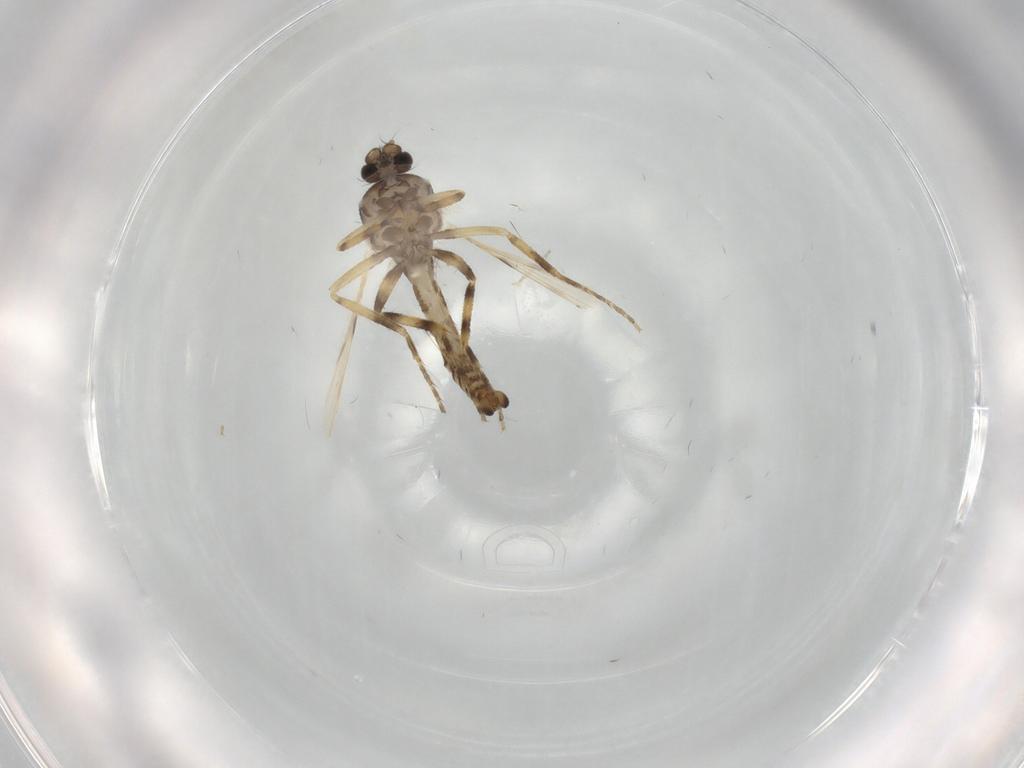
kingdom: Animalia
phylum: Arthropoda
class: Insecta
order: Diptera
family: Ceratopogonidae
